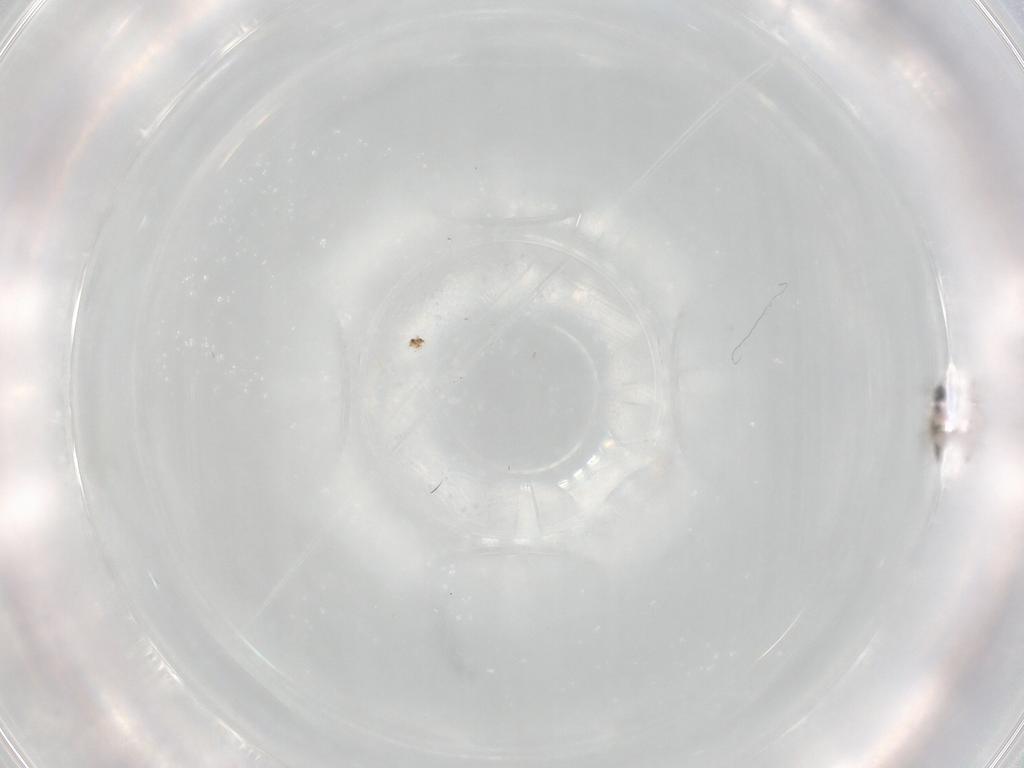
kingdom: Animalia
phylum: Arthropoda
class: Insecta
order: Hymenoptera
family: Mymaridae
